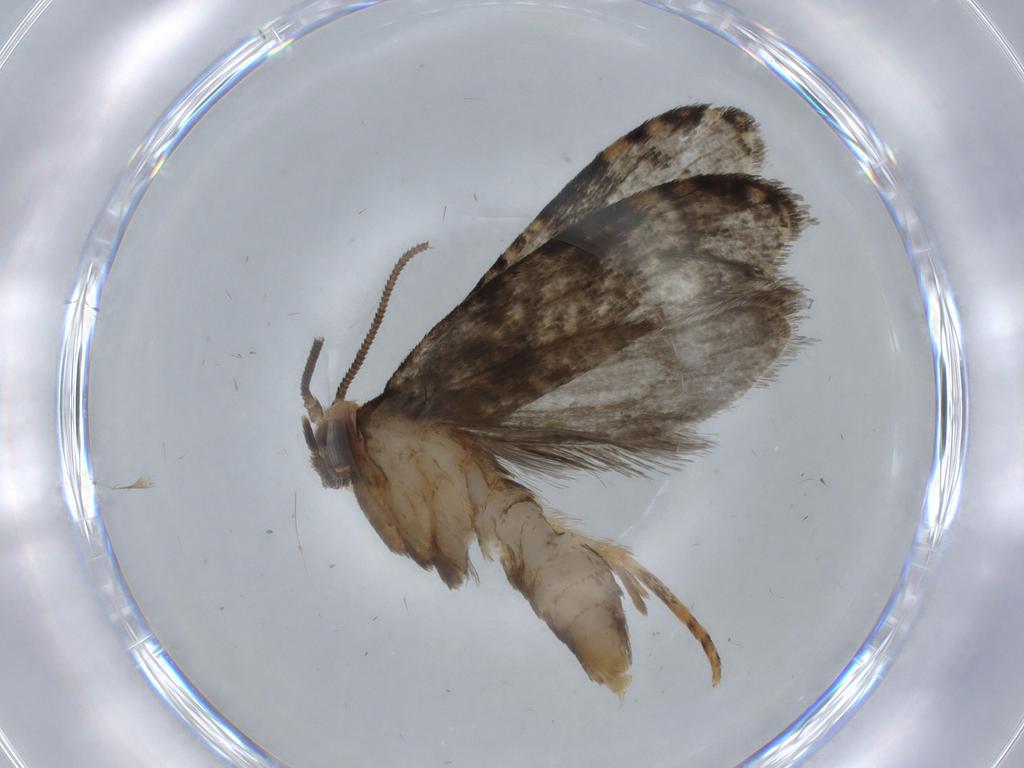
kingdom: Animalia
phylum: Arthropoda
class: Insecta
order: Lepidoptera
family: Tineidae
